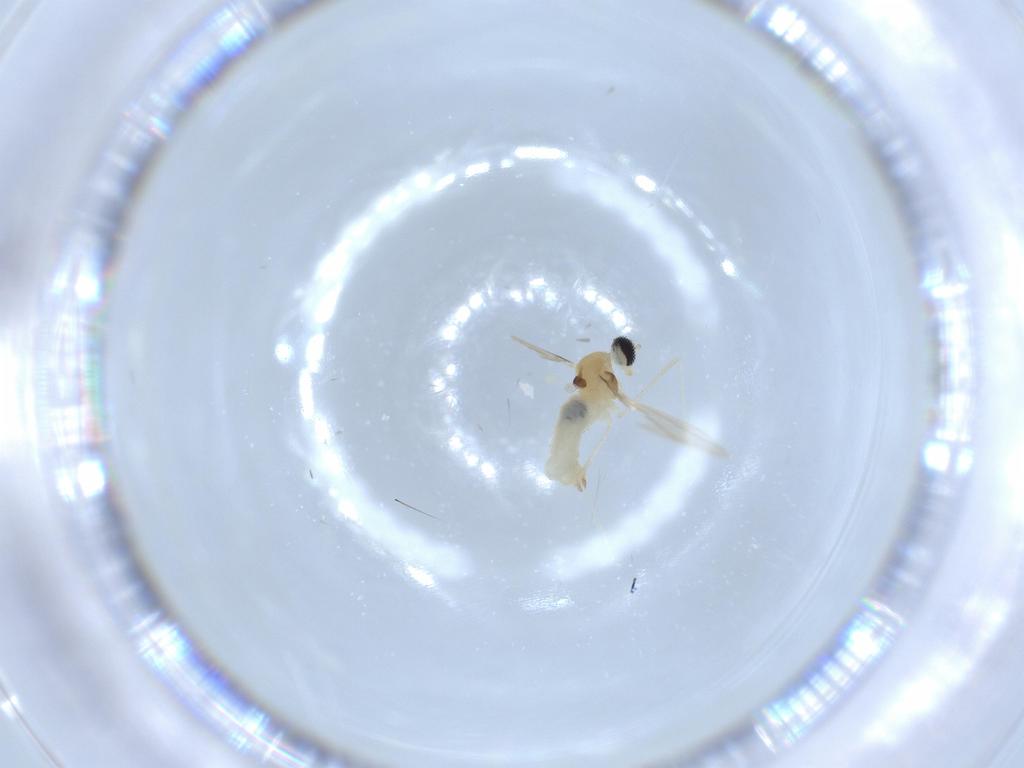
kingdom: Animalia
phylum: Arthropoda
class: Insecta
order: Diptera
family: Cecidomyiidae
